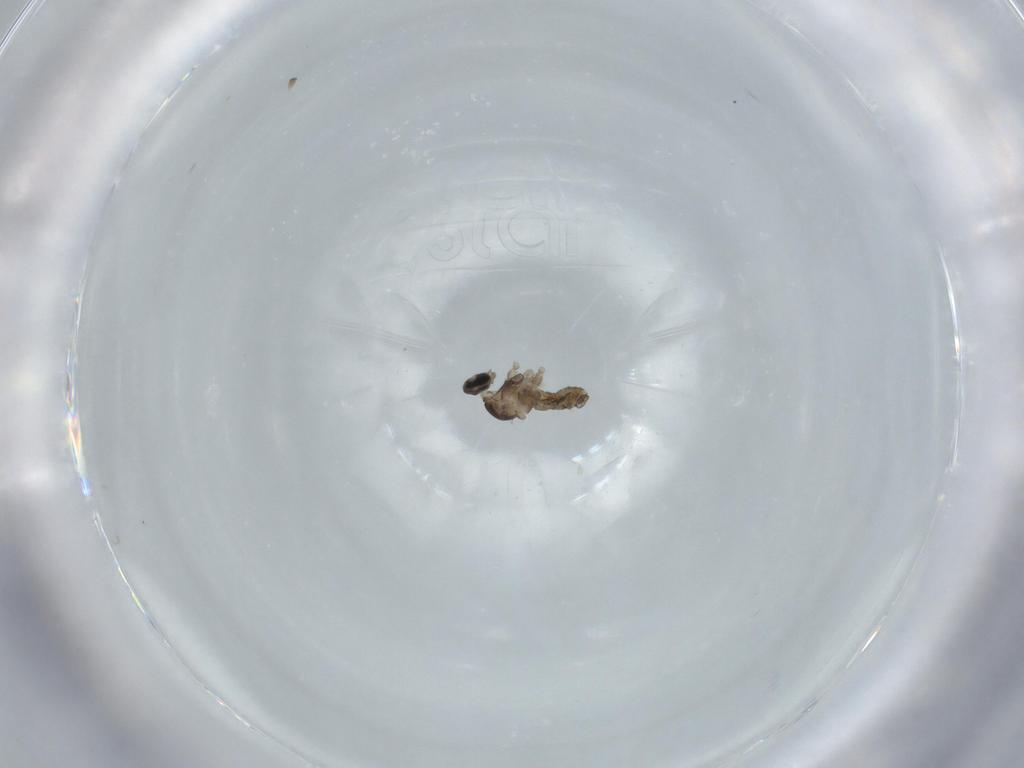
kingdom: Animalia
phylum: Arthropoda
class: Insecta
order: Diptera
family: Cecidomyiidae
